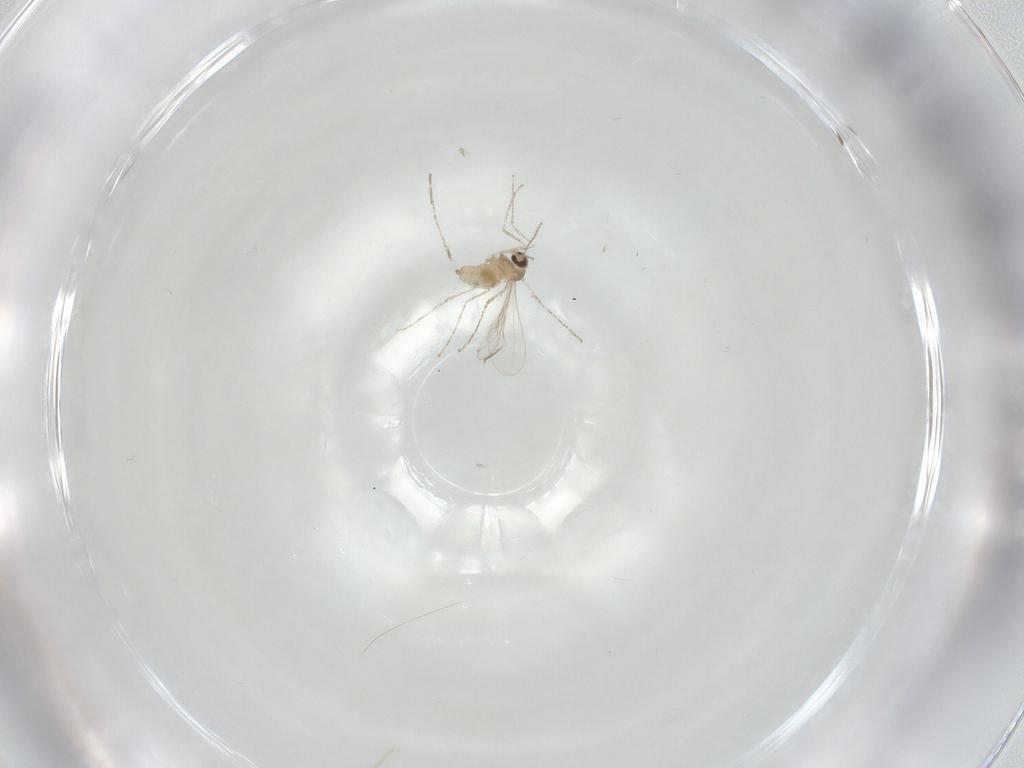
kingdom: Animalia
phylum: Arthropoda
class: Insecta
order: Diptera
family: Cecidomyiidae
